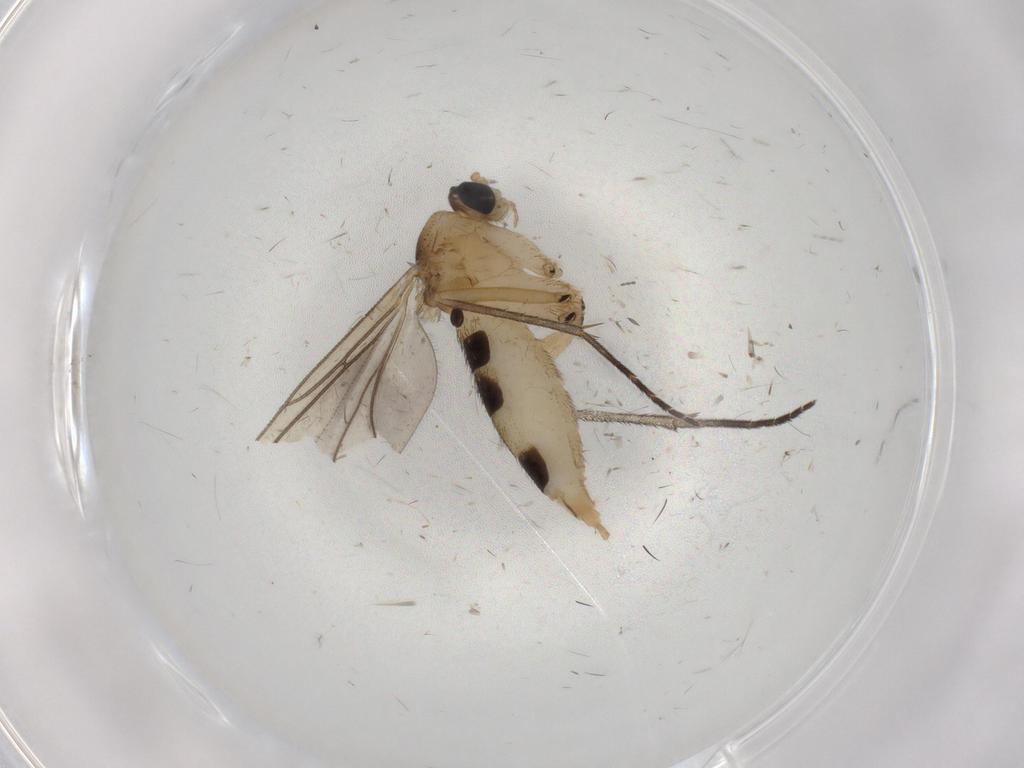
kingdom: Animalia
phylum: Arthropoda
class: Insecta
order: Diptera
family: Sciaridae
